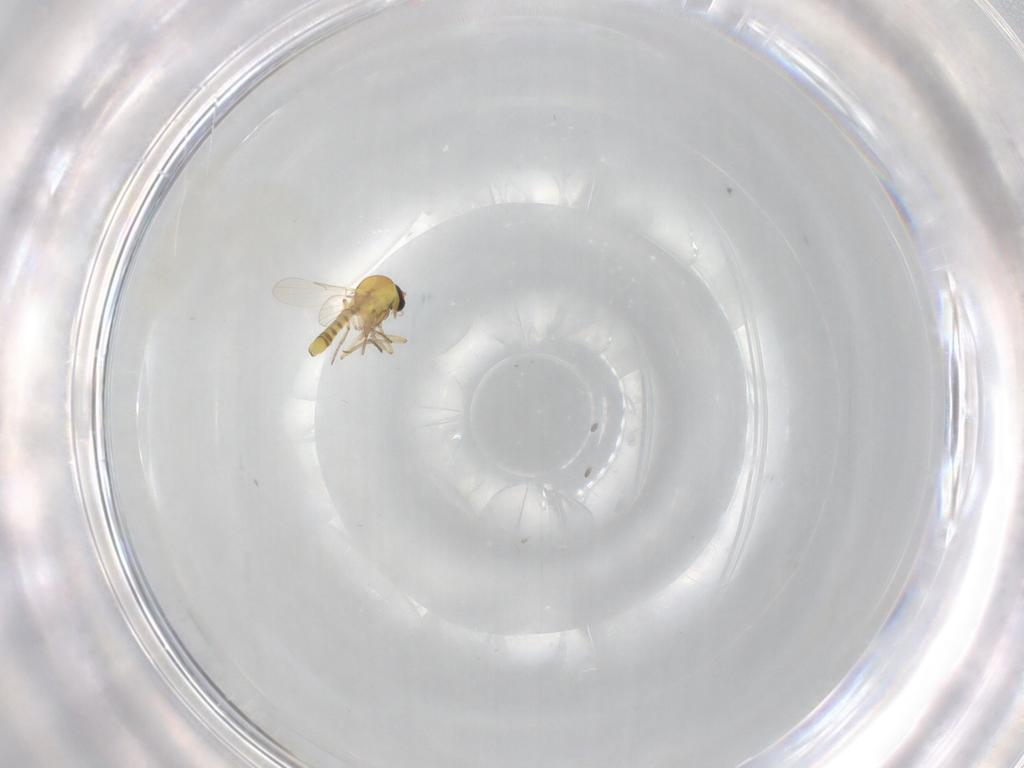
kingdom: Animalia
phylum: Arthropoda
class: Insecta
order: Diptera
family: Ceratopogonidae
